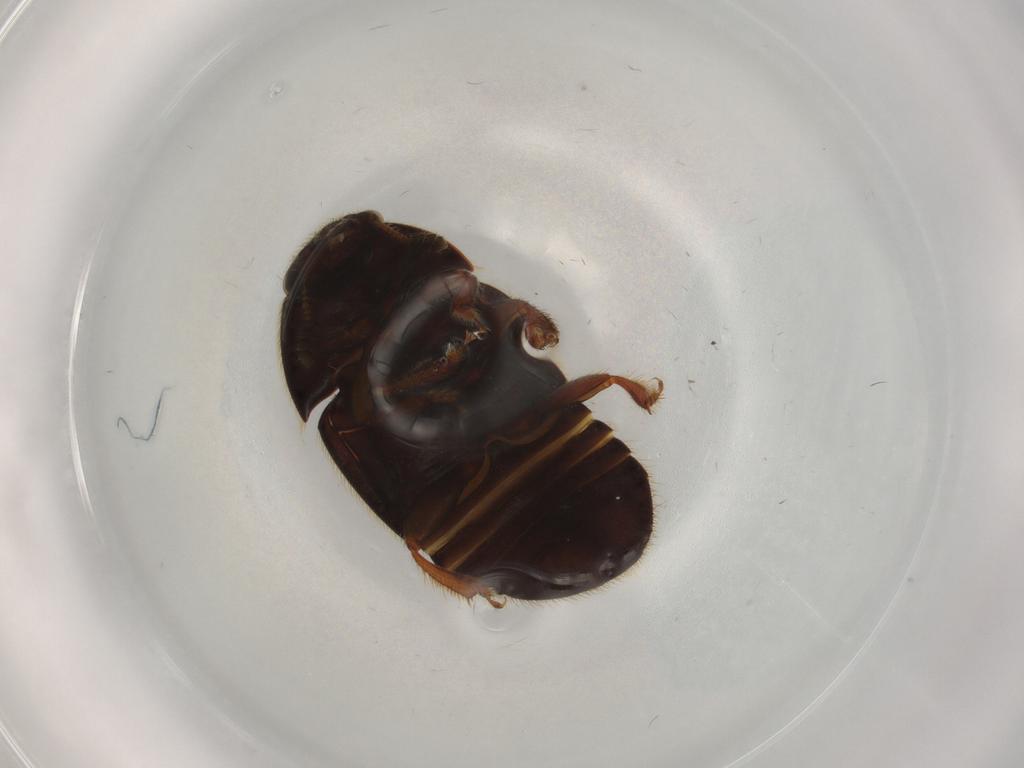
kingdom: Animalia
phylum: Arthropoda
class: Insecta
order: Coleoptera
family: Nitidulidae
